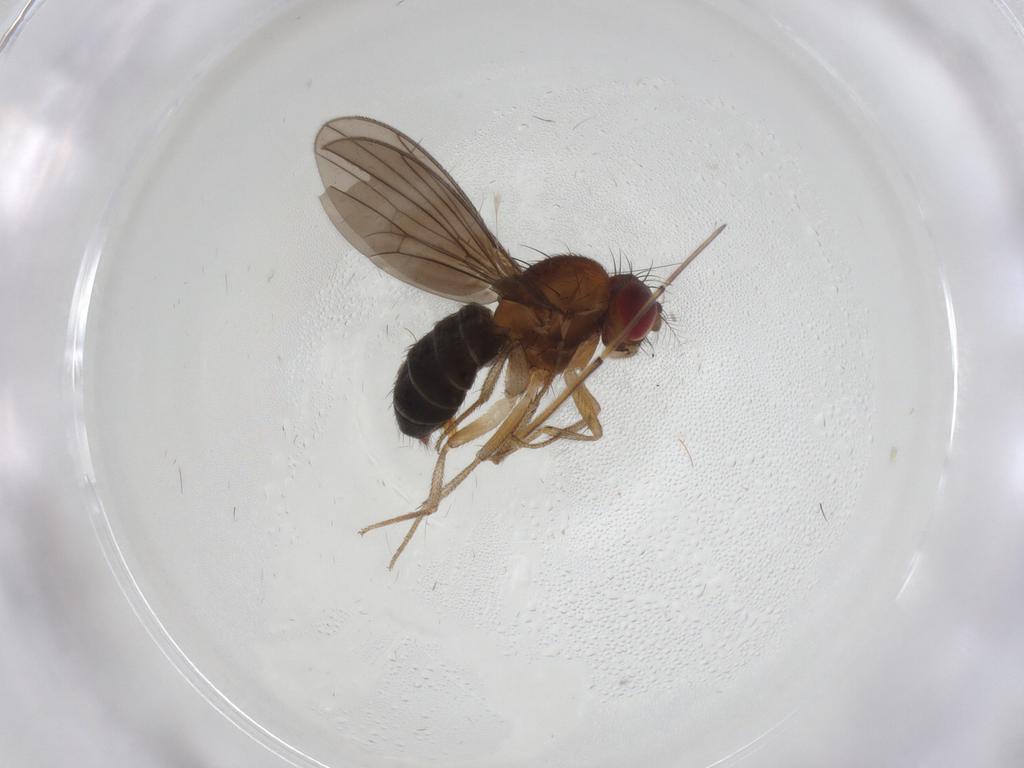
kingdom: Animalia
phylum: Arthropoda
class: Insecta
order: Diptera
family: Drosophilidae
